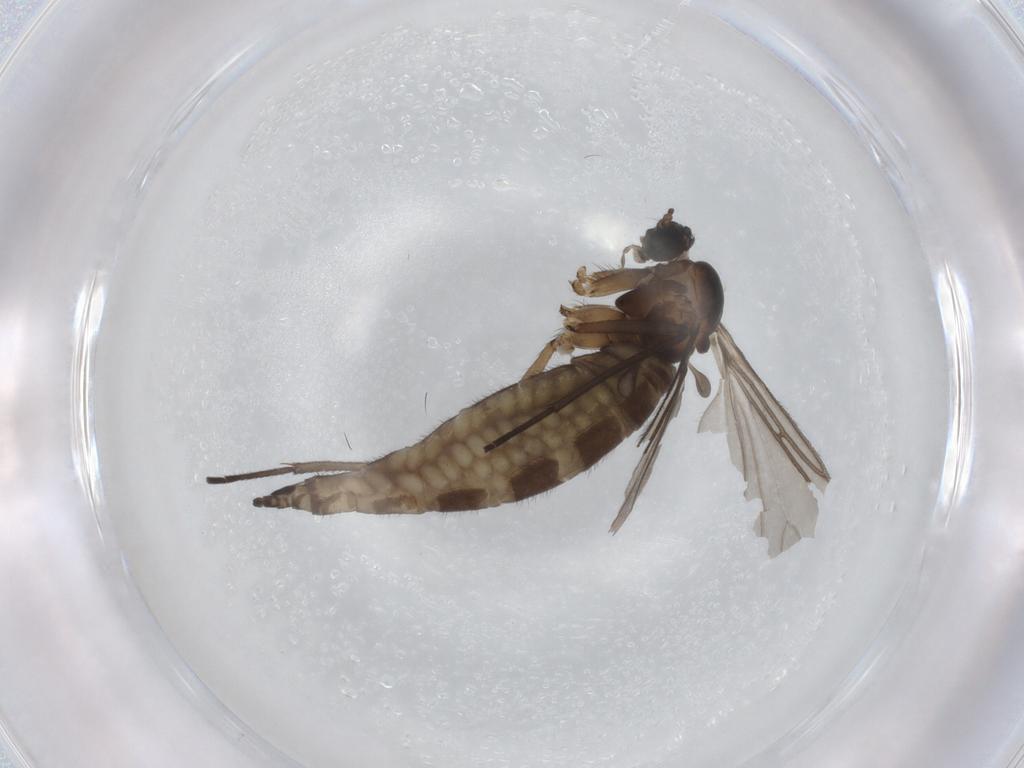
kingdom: Animalia
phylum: Arthropoda
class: Insecta
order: Diptera
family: Sciaridae
